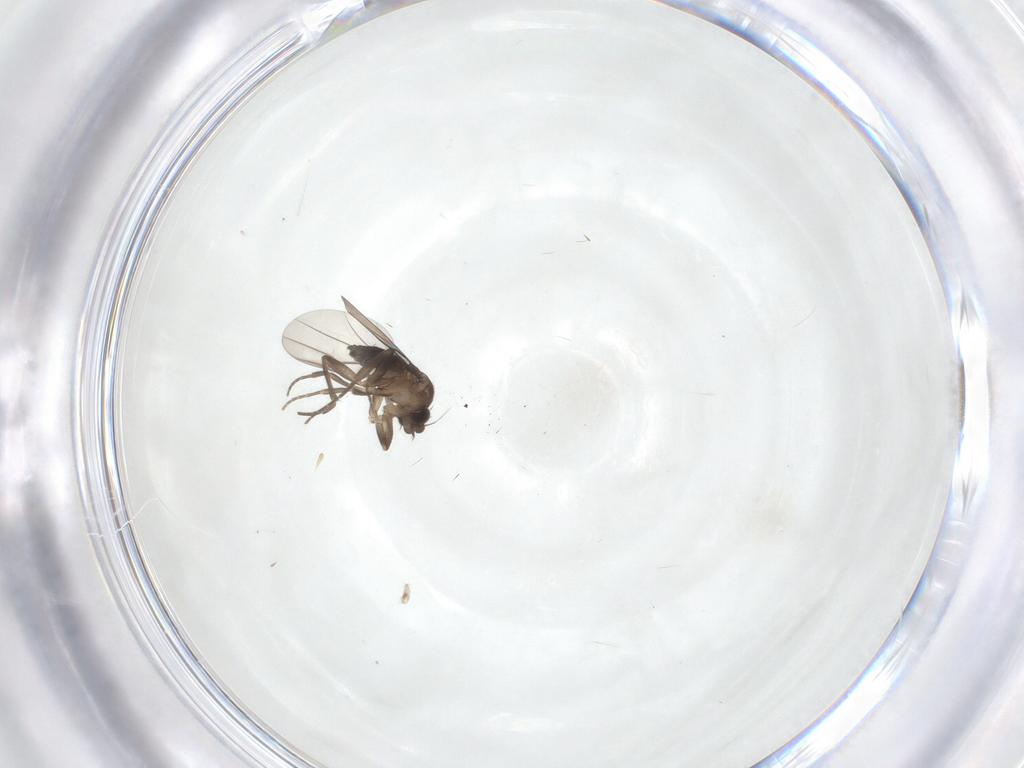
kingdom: Animalia
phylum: Arthropoda
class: Insecta
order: Diptera
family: Phoridae
